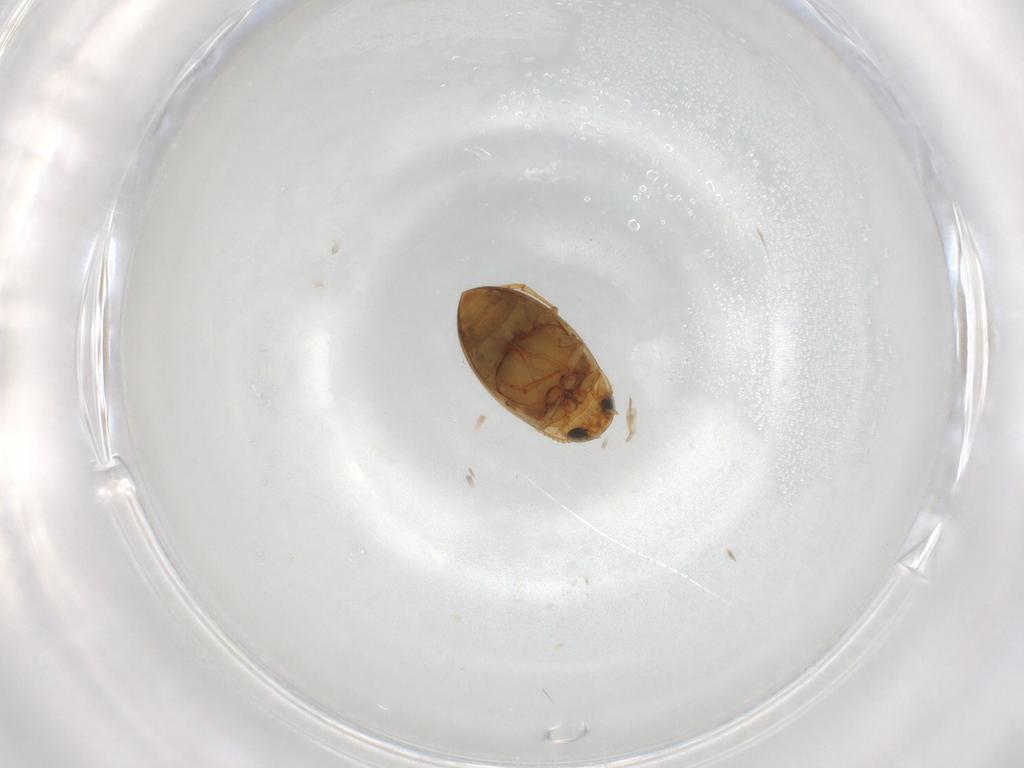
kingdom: Animalia
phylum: Arthropoda
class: Insecta
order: Coleoptera
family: Dytiscidae
